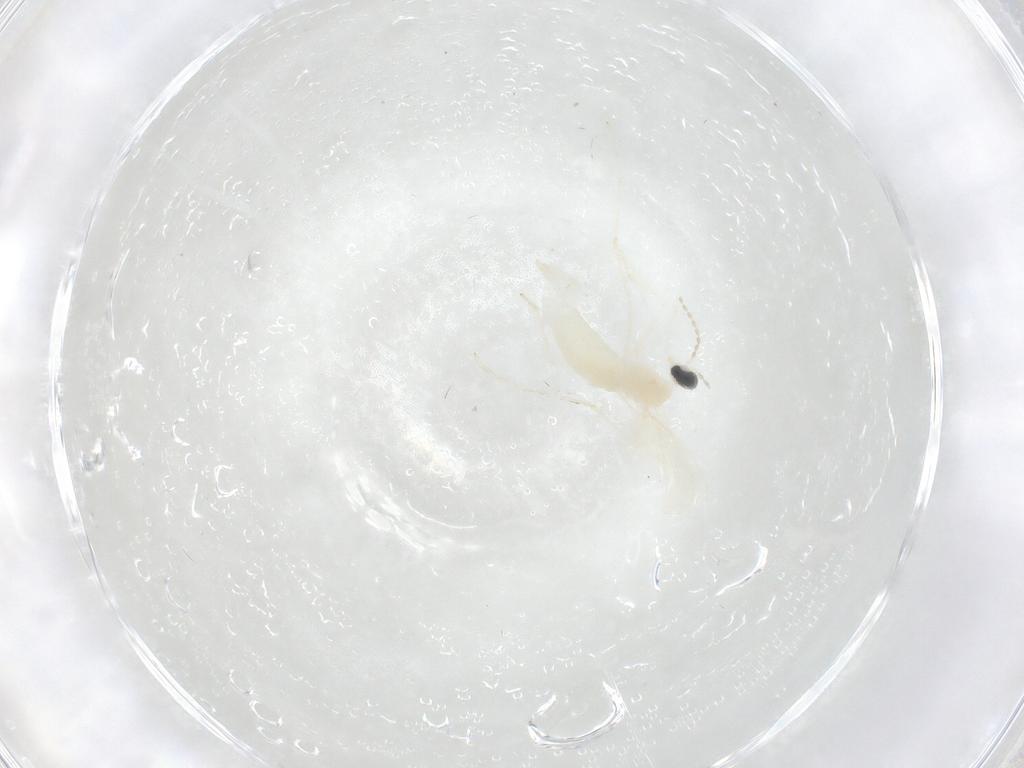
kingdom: Animalia
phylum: Arthropoda
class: Insecta
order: Diptera
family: Cecidomyiidae
